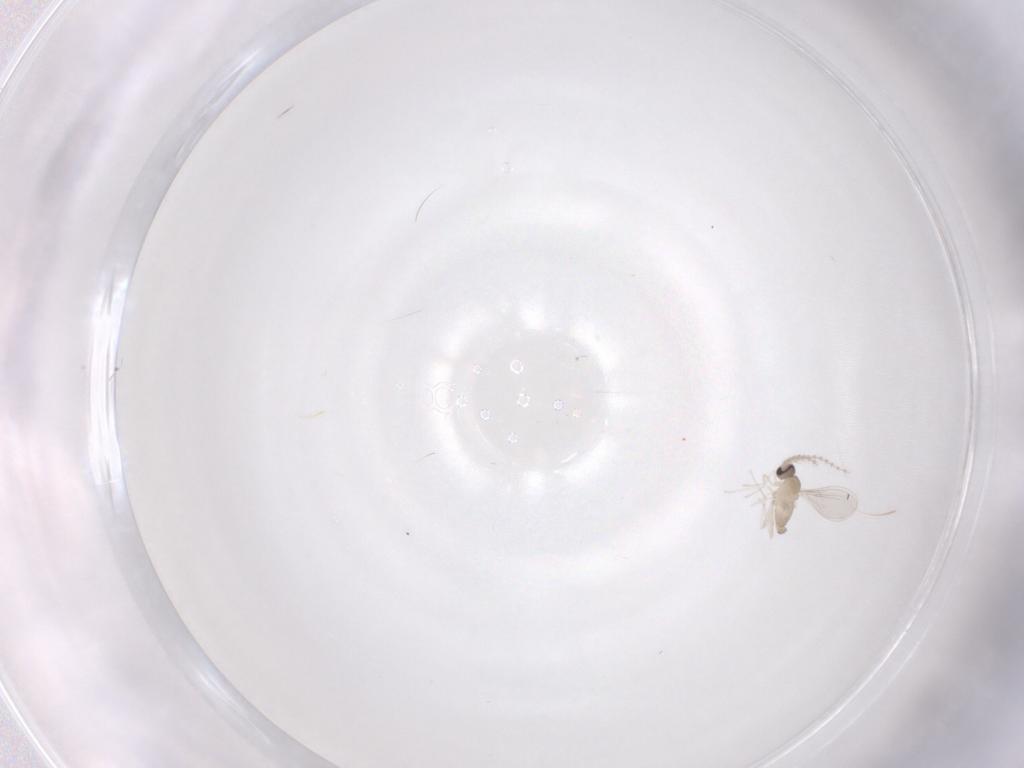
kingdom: Animalia
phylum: Arthropoda
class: Insecta
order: Diptera
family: Cecidomyiidae
